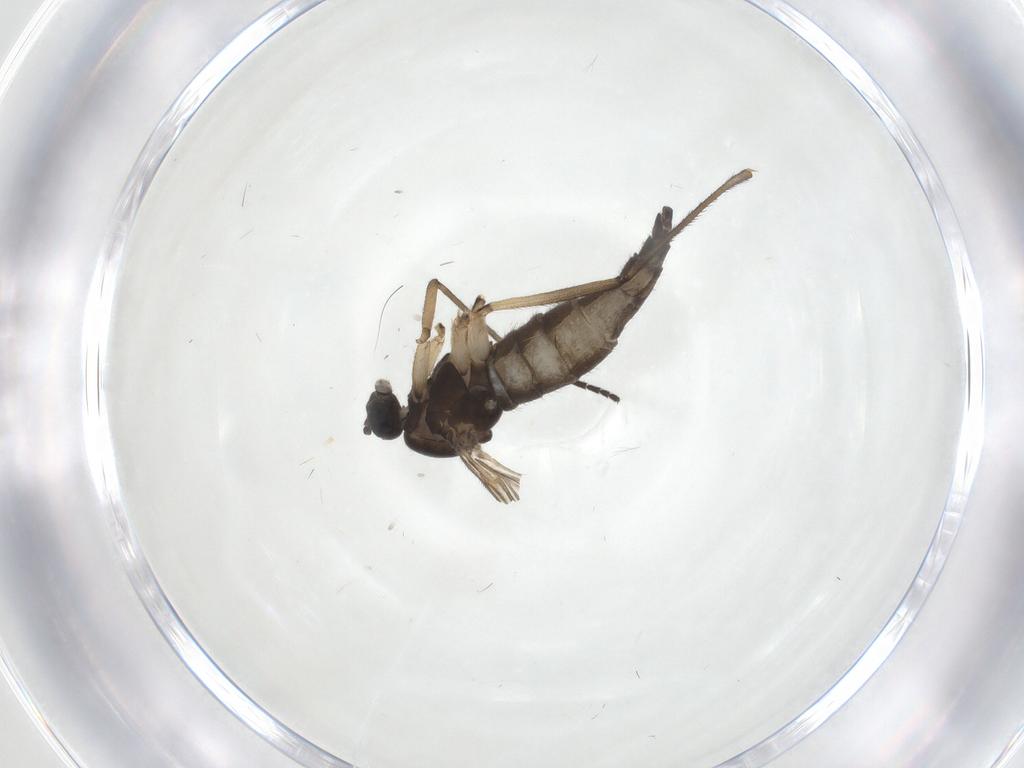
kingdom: Animalia
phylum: Arthropoda
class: Insecta
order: Diptera
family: Sciaridae
